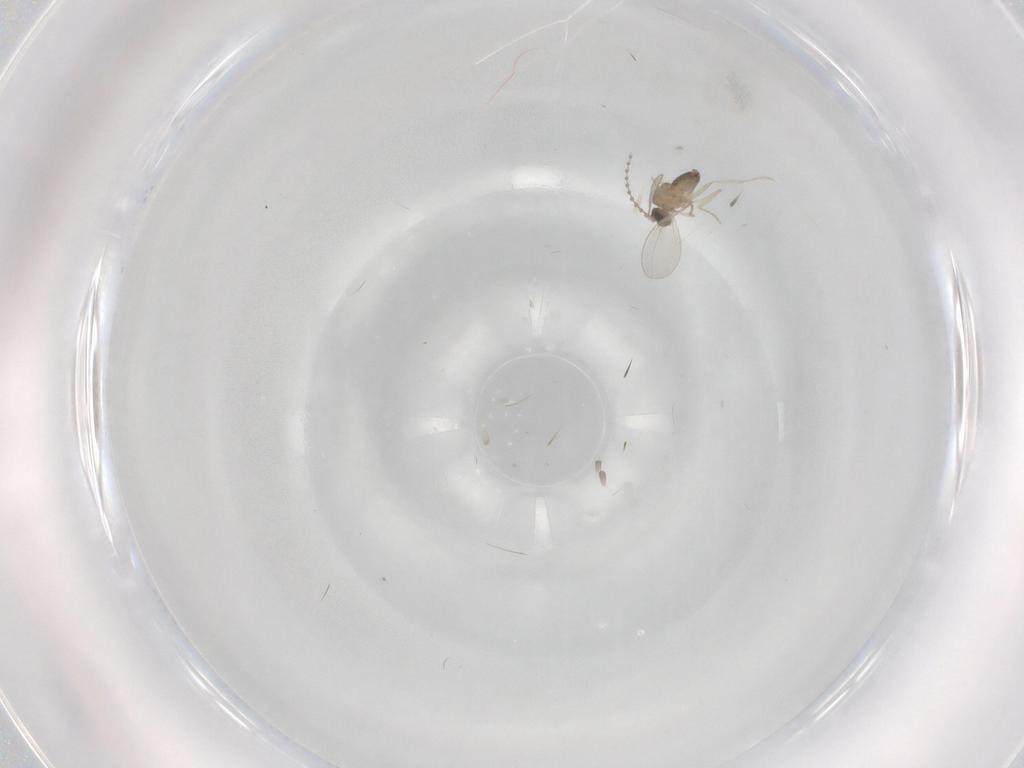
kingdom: Animalia
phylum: Arthropoda
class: Insecta
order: Diptera
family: Cecidomyiidae
